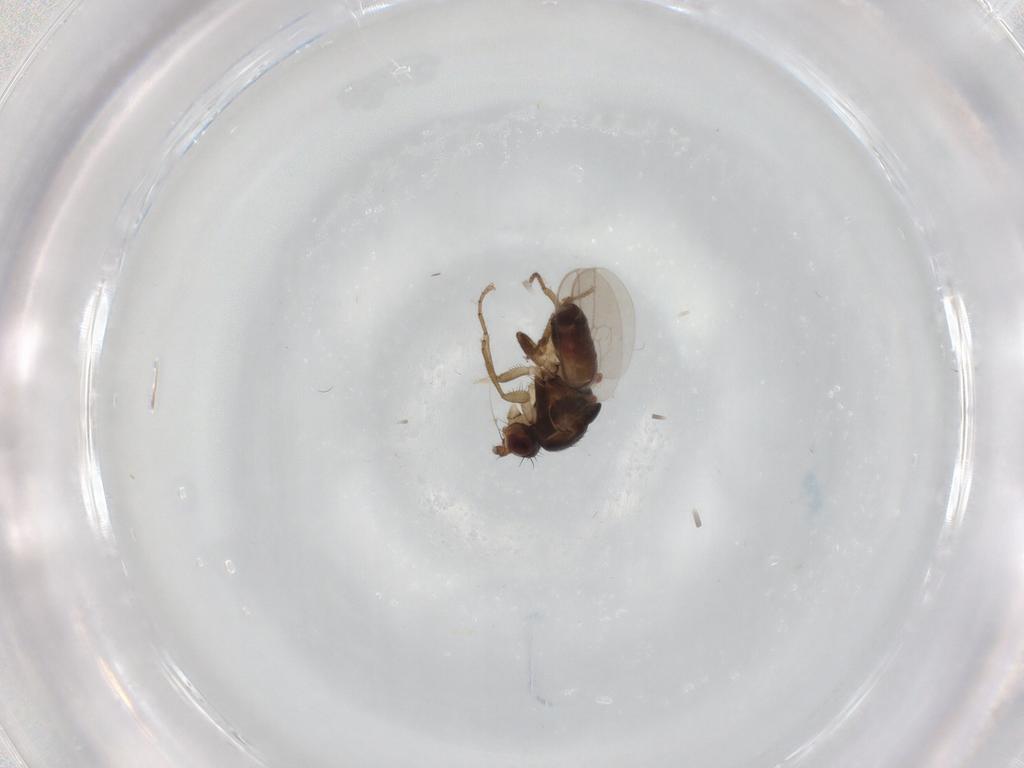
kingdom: Animalia
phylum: Arthropoda
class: Insecta
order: Diptera
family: Sphaeroceridae
